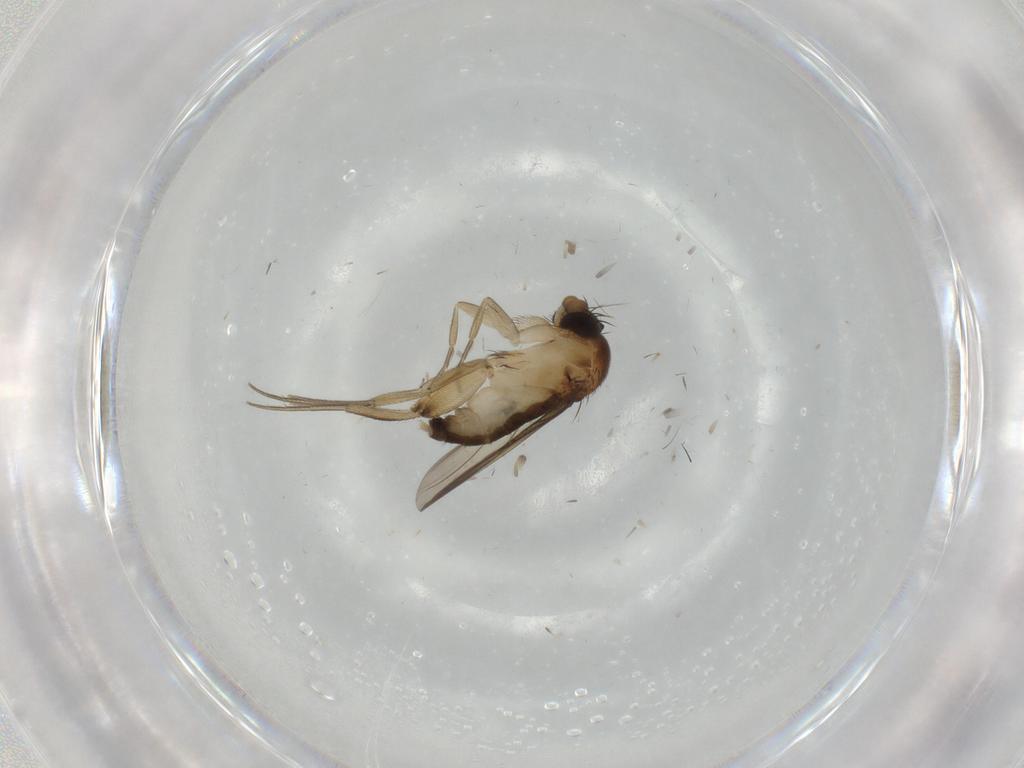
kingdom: Animalia
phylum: Arthropoda
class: Insecta
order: Diptera
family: Phoridae
